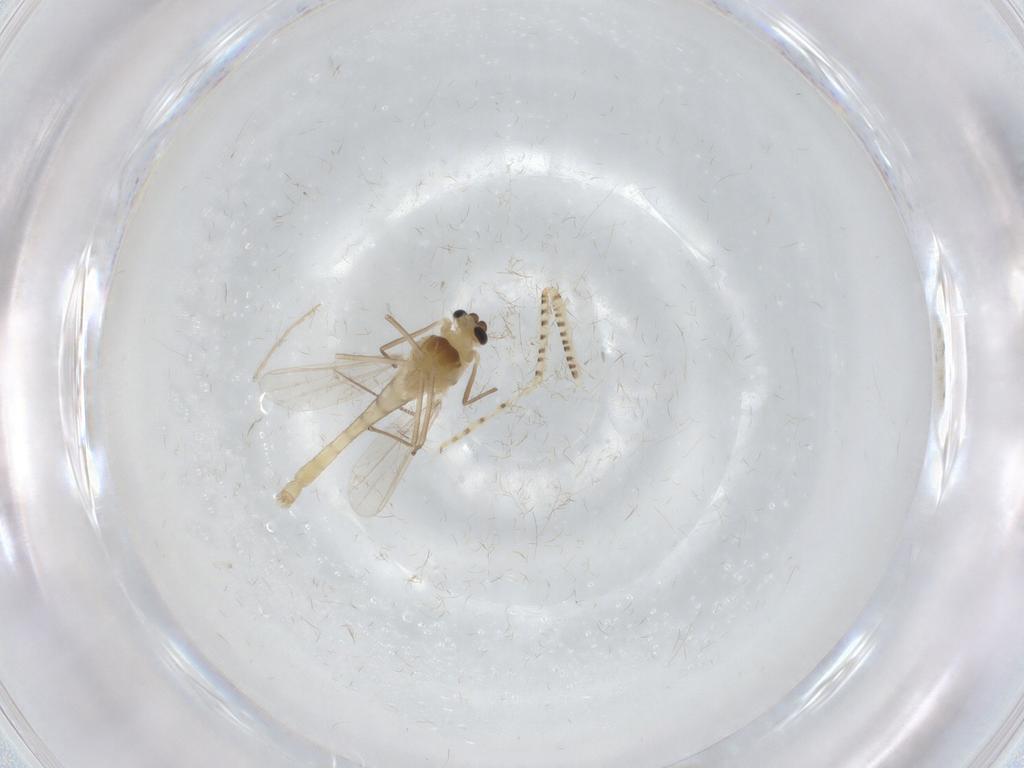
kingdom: Animalia
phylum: Arthropoda
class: Insecta
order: Diptera
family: Chironomidae
